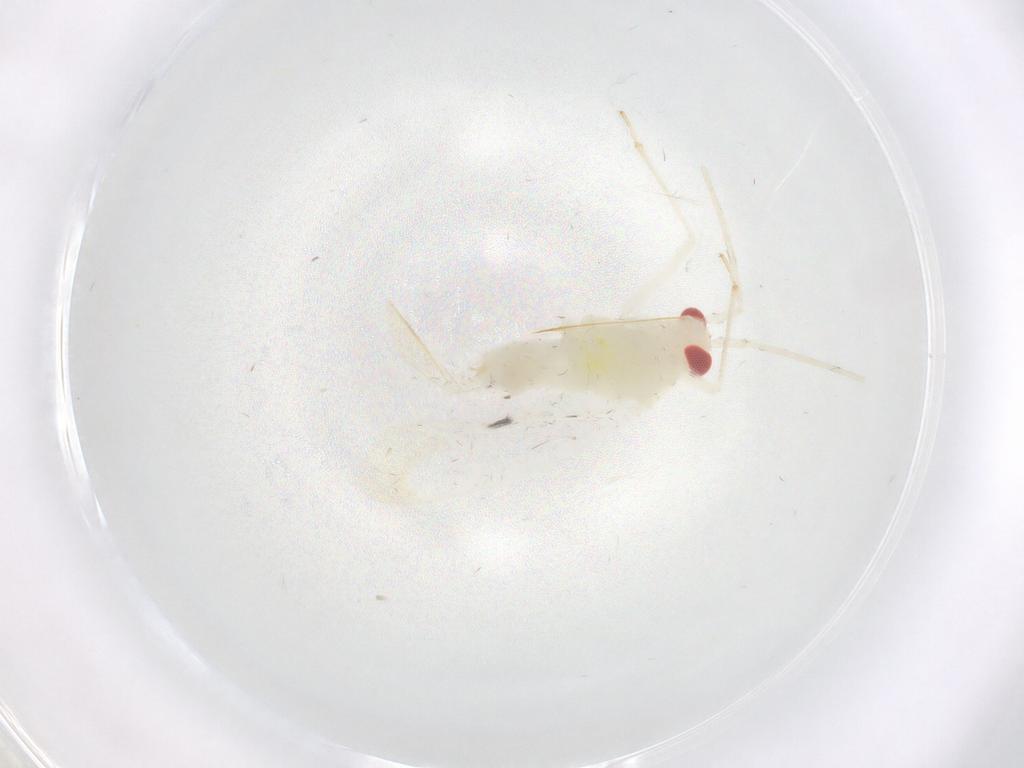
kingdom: Animalia
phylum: Arthropoda
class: Insecta
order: Hemiptera
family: Miridae
